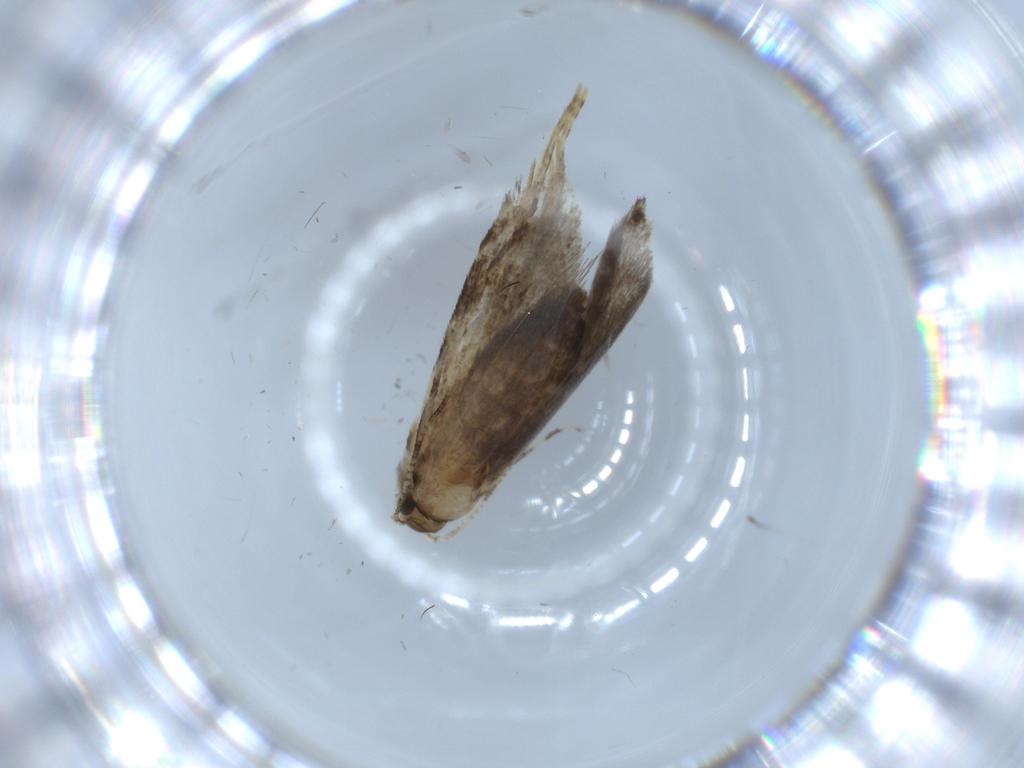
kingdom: Animalia
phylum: Arthropoda
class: Insecta
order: Lepidoptera
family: Tineidae
